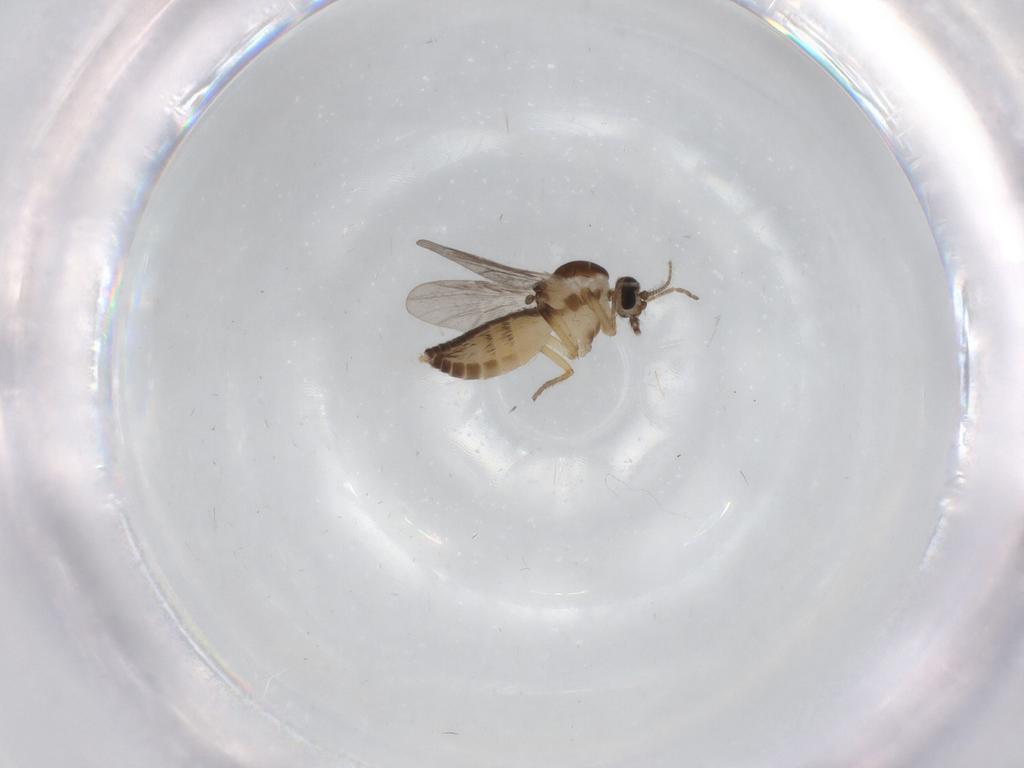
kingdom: Animalia
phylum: Arthropoda
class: Insecta
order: Diptera
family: Ceratopogonidae
